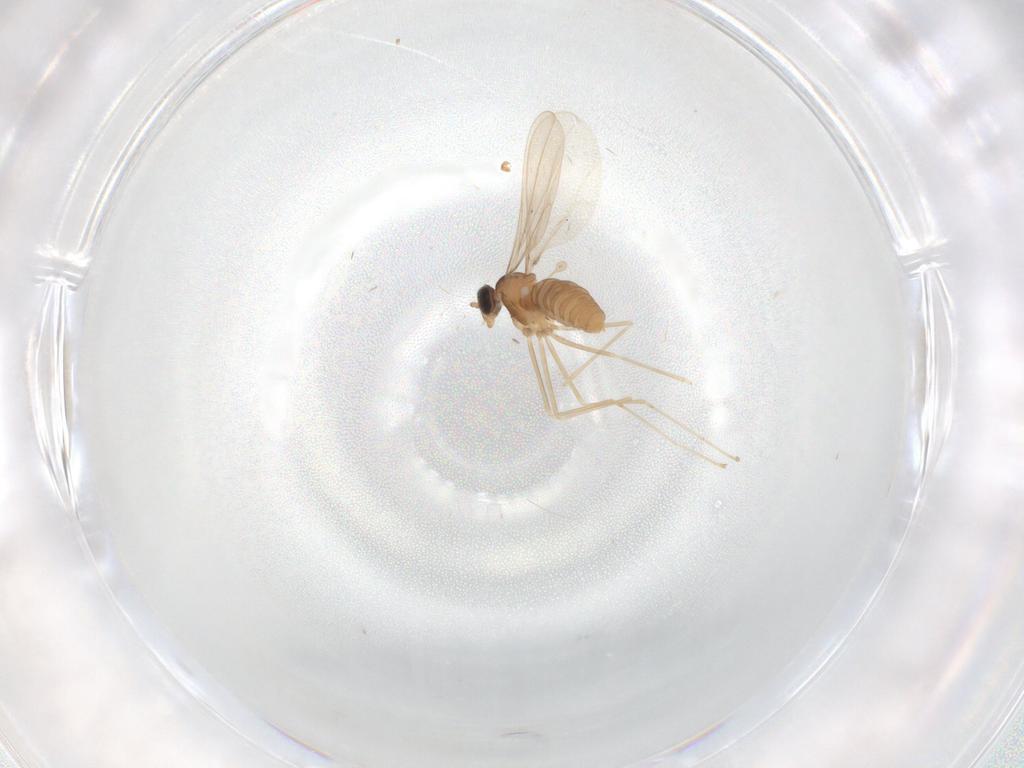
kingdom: Animalia
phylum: Arthropoda
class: Insecta
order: Diptera
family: Cecidomyiidae
